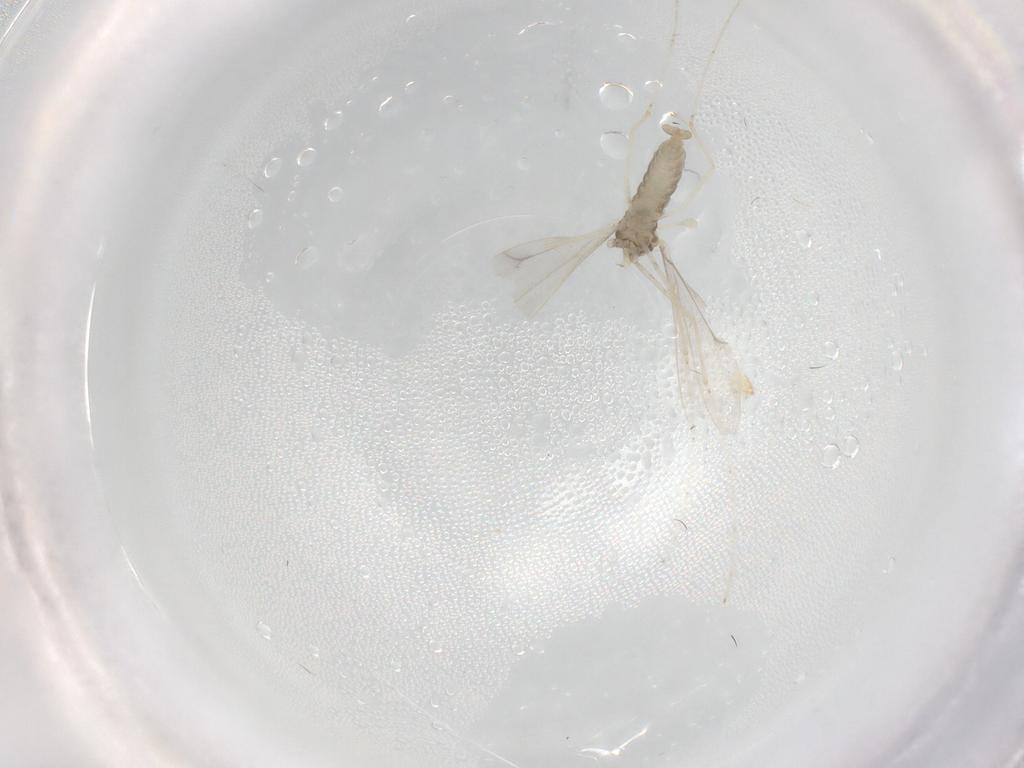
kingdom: Animalia
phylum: Arthropoda
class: Insecta
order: Diptera
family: Cecidomyiidae
